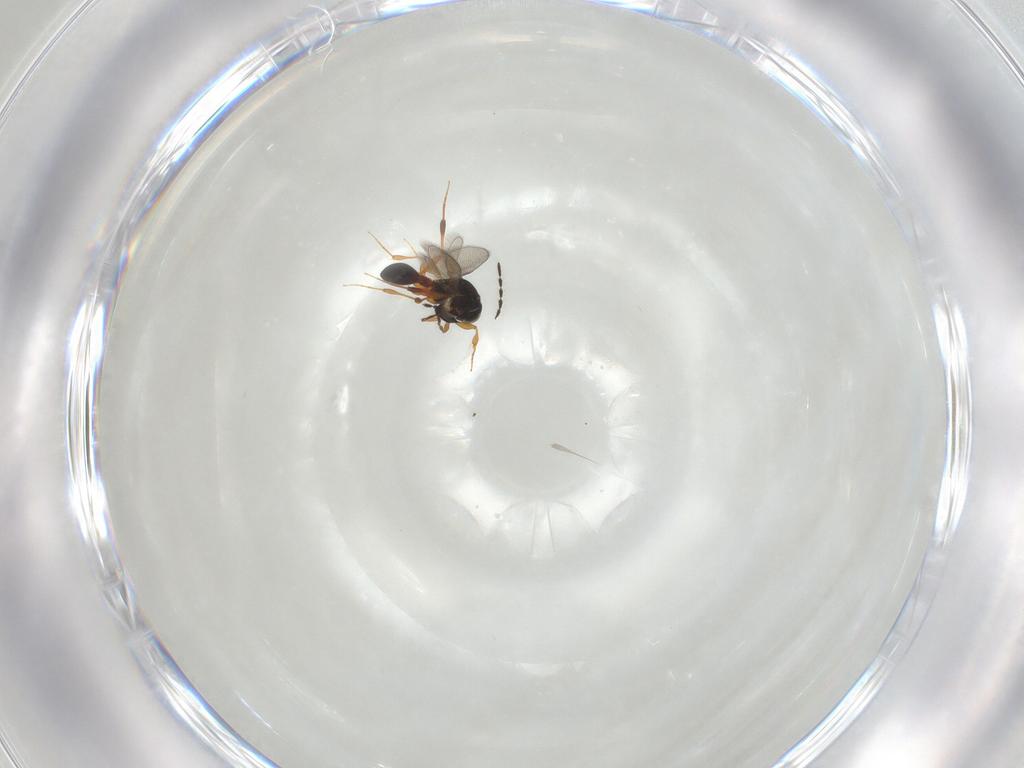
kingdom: Animalia
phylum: Arthropoda
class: Insecta
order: Hymenoptera
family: Platygastridae
